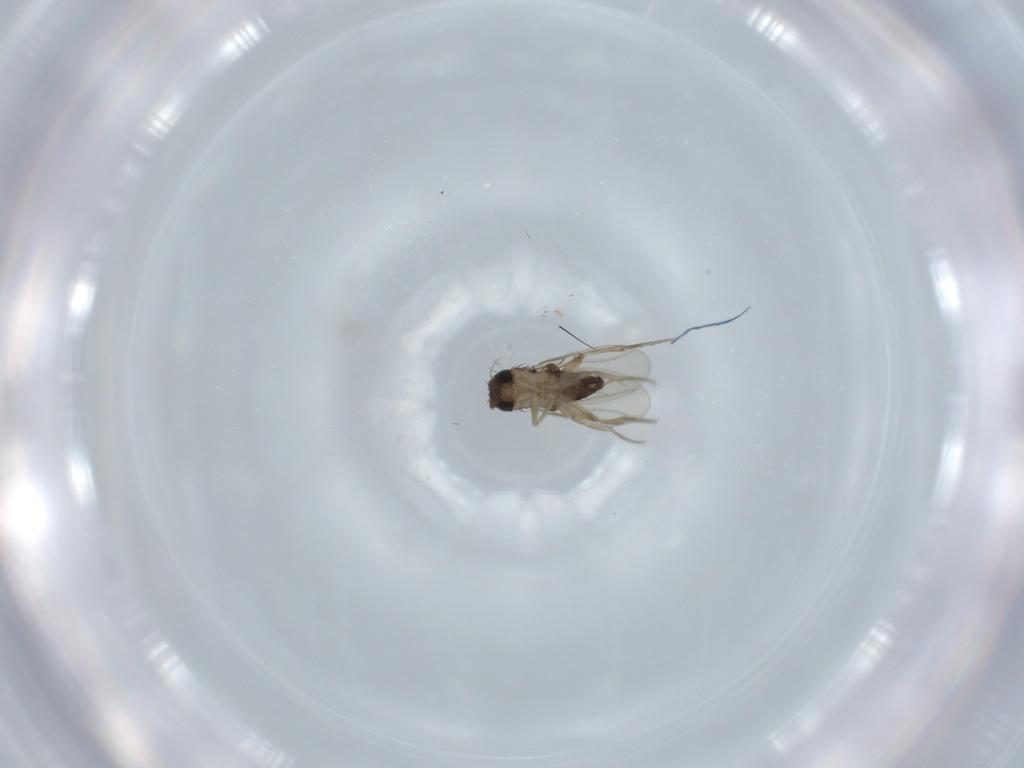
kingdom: Animalia
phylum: Arthropoda
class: Insecta
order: Diptera
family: Phoridae
